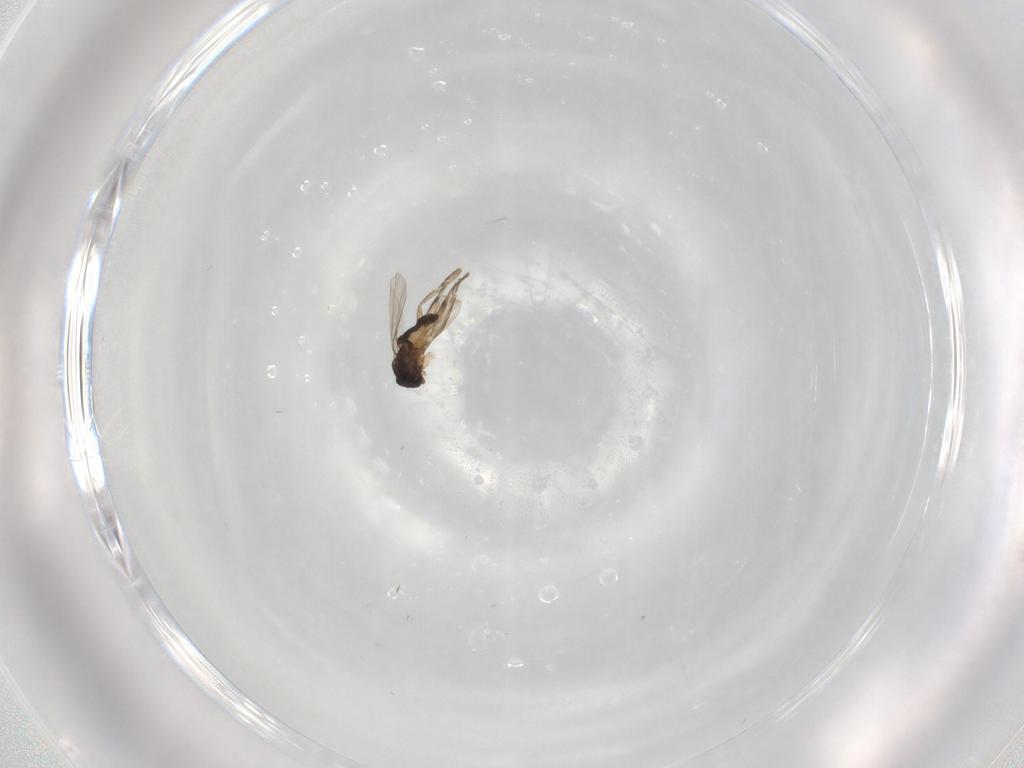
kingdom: Animalia
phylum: Arthropoda
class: Insecta
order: Diptera
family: Phoridae
